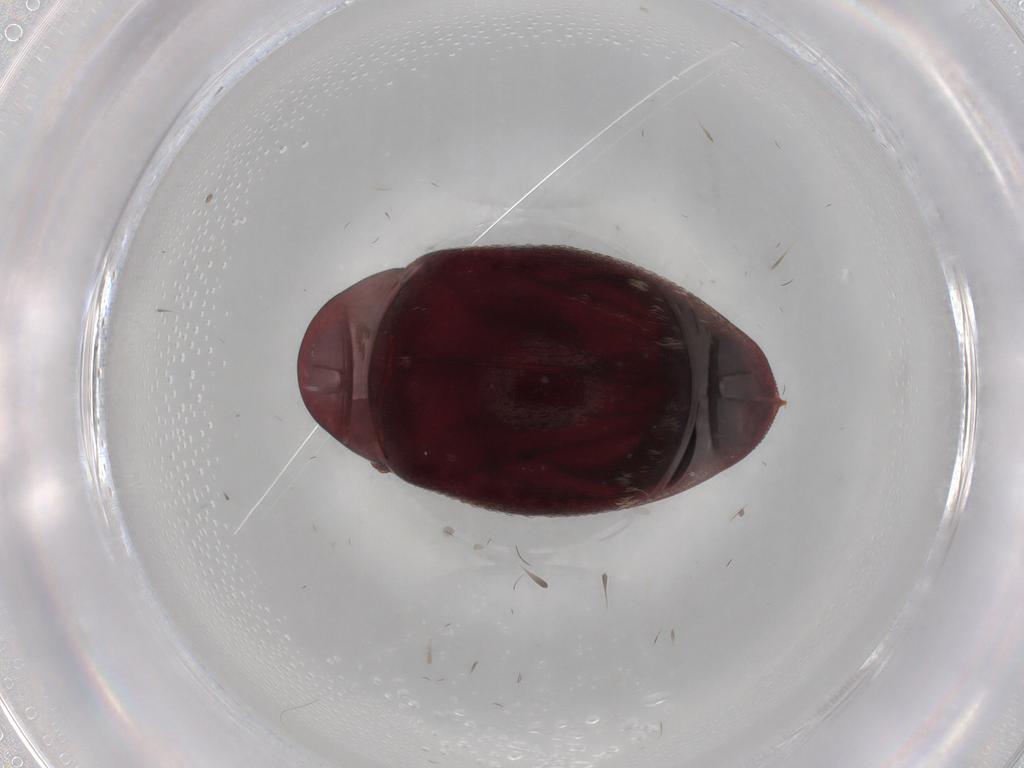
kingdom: Animalia
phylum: Arthropoda
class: Insecta
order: Coleoptera
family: Chelonariidae
